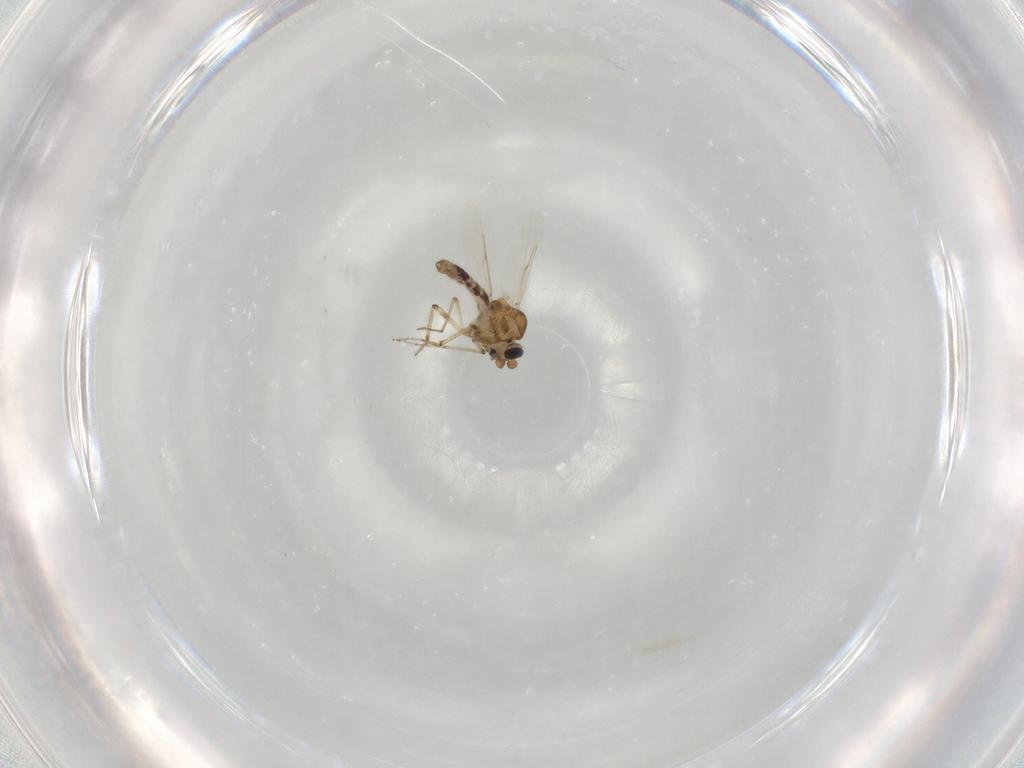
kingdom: Animalia
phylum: Arthropoda
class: Insecta
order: Diptera
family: Ceratopogonidae
